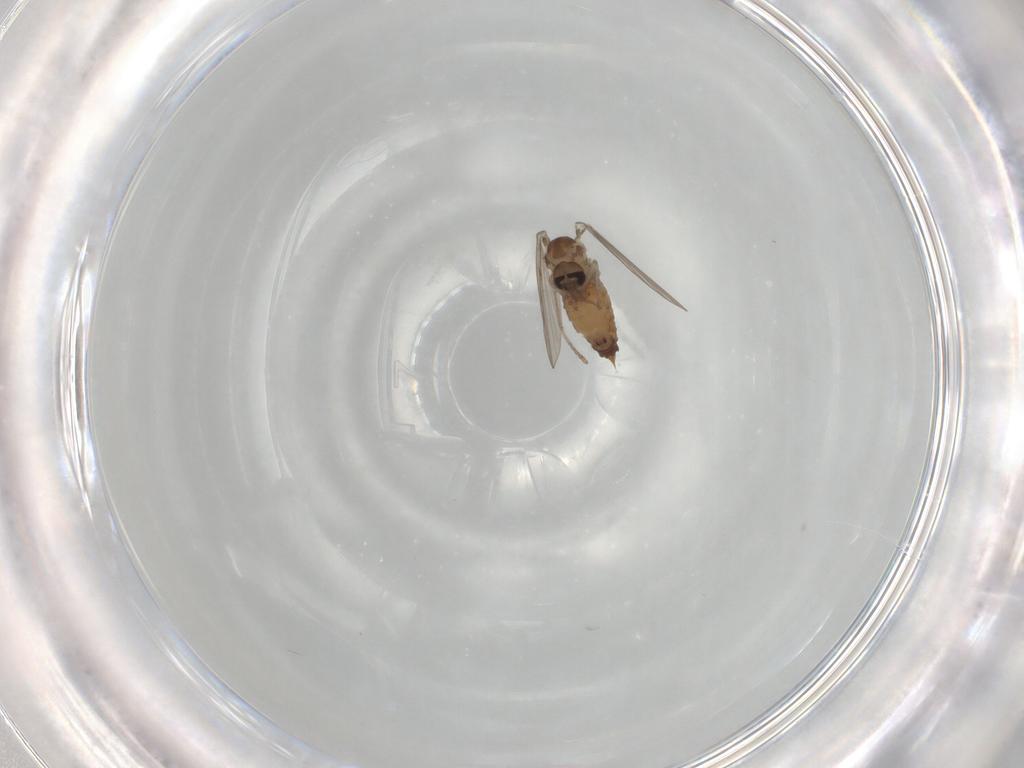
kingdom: Animalia
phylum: Arthropoda
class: Insecta
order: Diptera
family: Psychodidae
